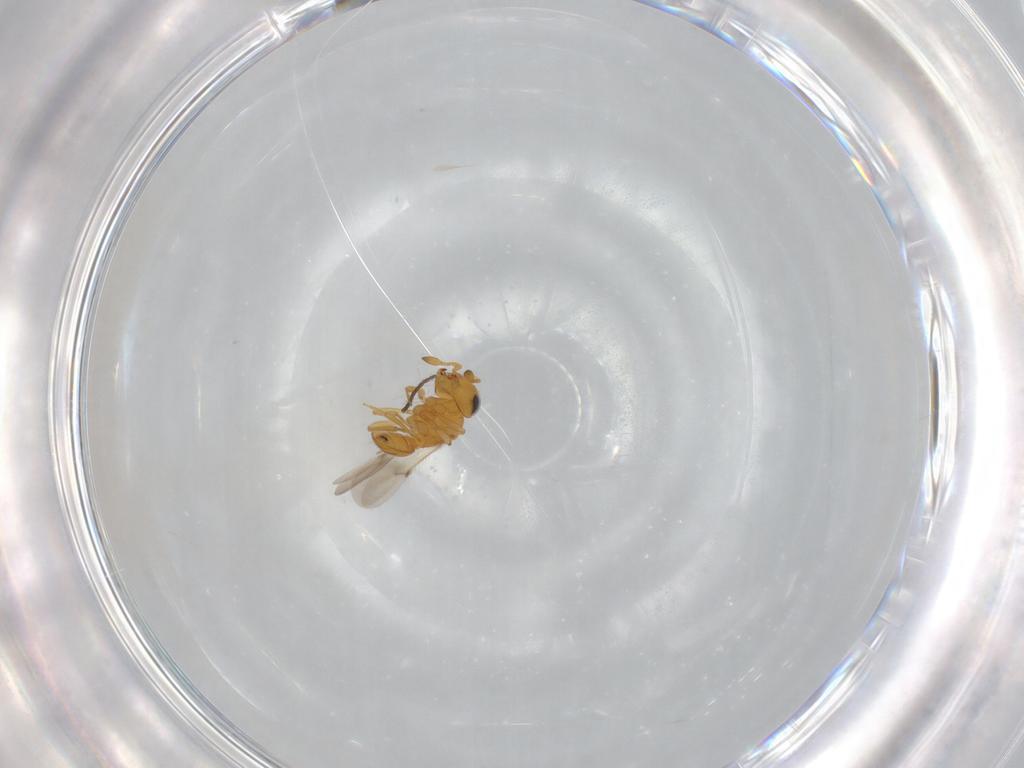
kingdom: Animalia
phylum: Arthropoda
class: Insecta
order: Hymenoptera
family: Scelionidae
